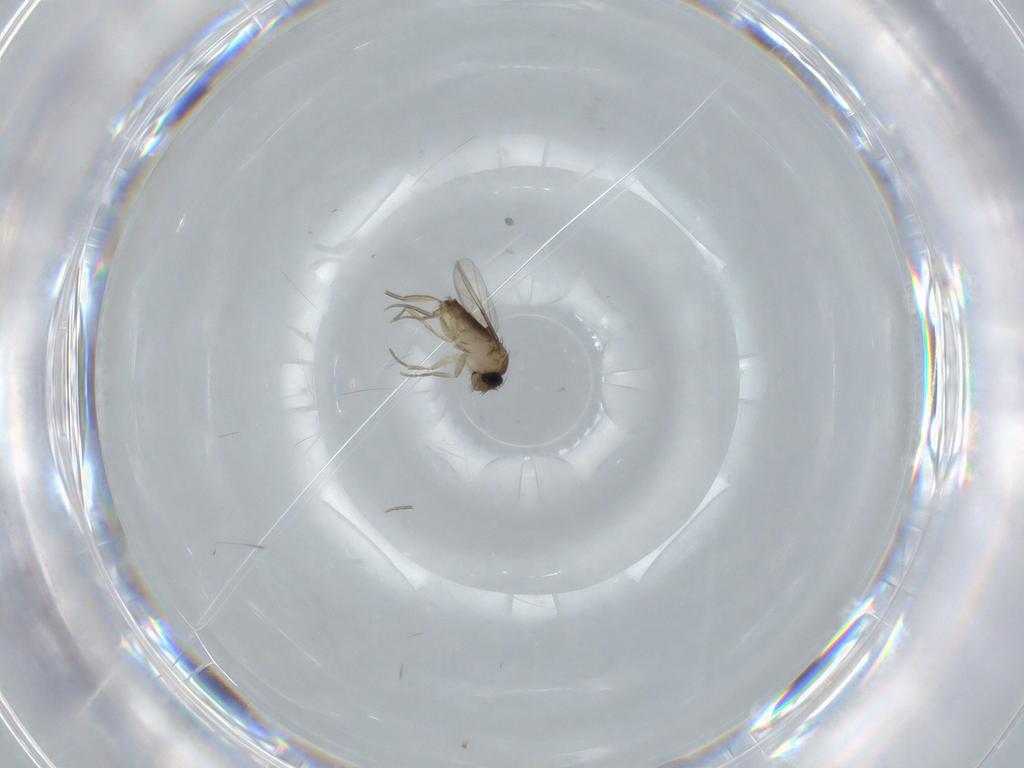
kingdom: Animalia
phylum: Arthropoda
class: Insecta
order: Diptera
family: Phoridae
